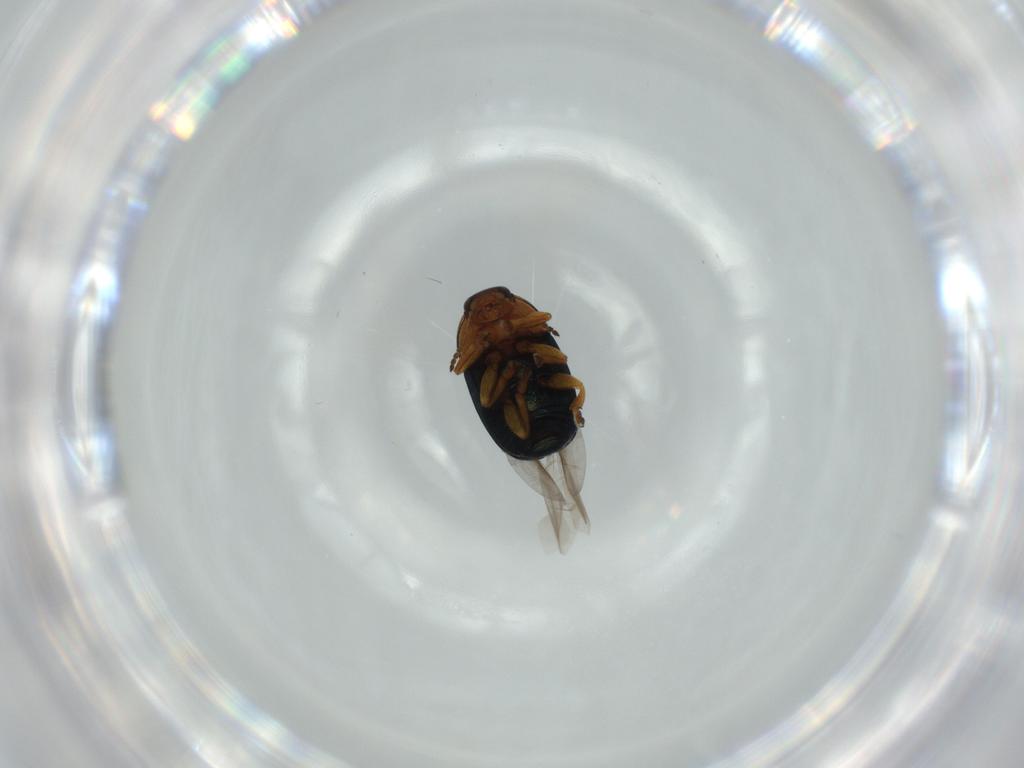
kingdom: Animalia
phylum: Arthropoda
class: Insecta
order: Coleoptera
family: Chrysomelidae
